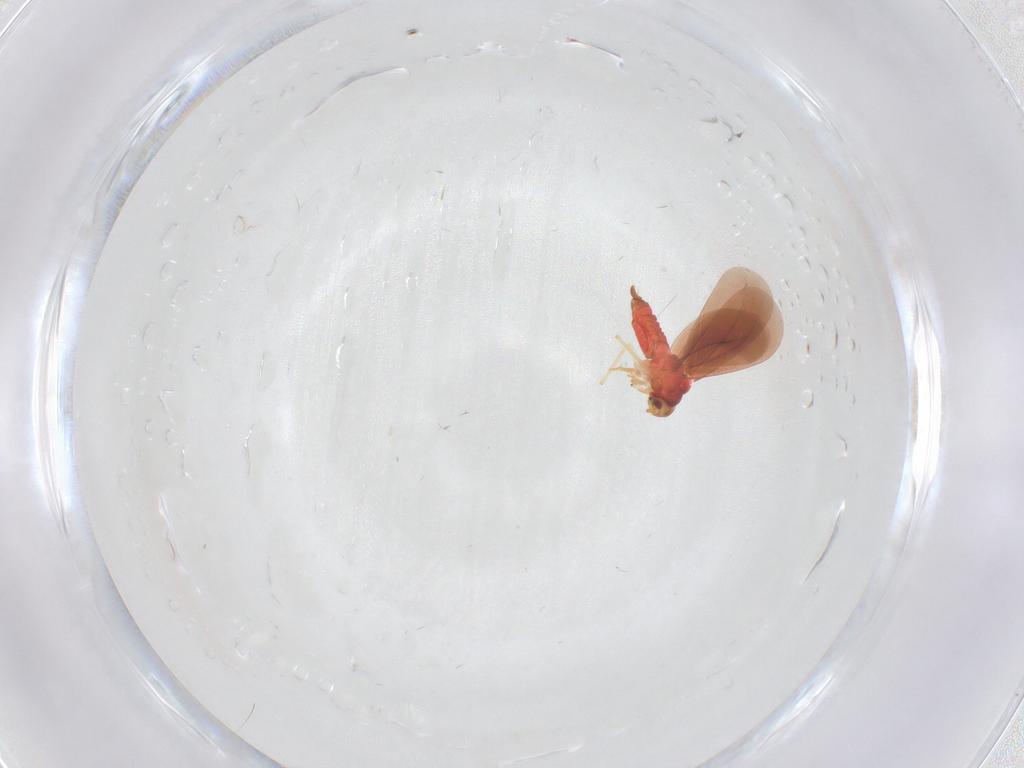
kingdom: Animalia
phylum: Arthropoda
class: Insecta
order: Hemiptera
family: Aleyrodidae
